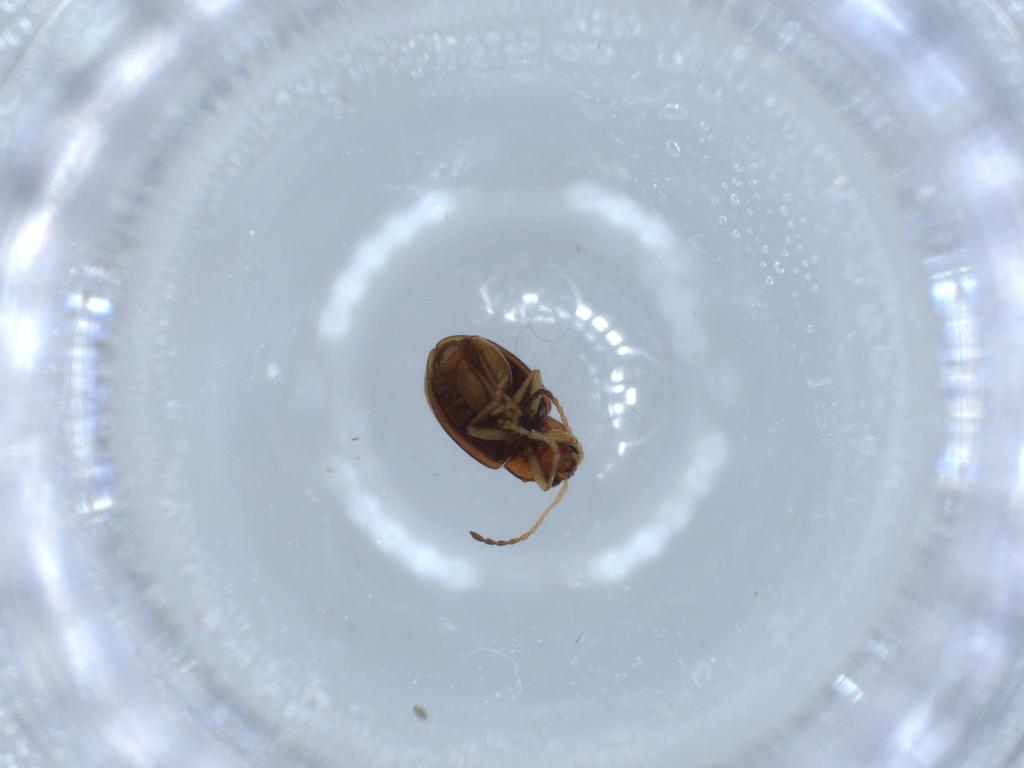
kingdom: Animalia
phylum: Arthropoda
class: Insecta
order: Coleoptera
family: Chrysomelidae
